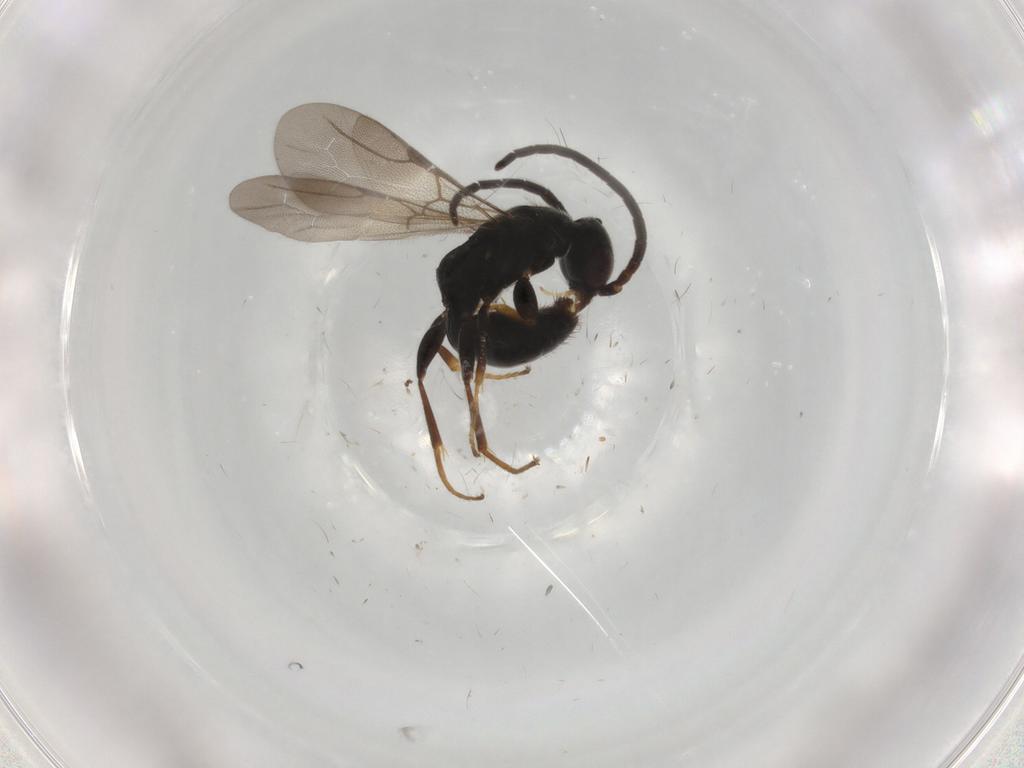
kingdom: Animalia
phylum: Arthropoda
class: Insecta
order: Hymenoptera
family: Bethylidae
